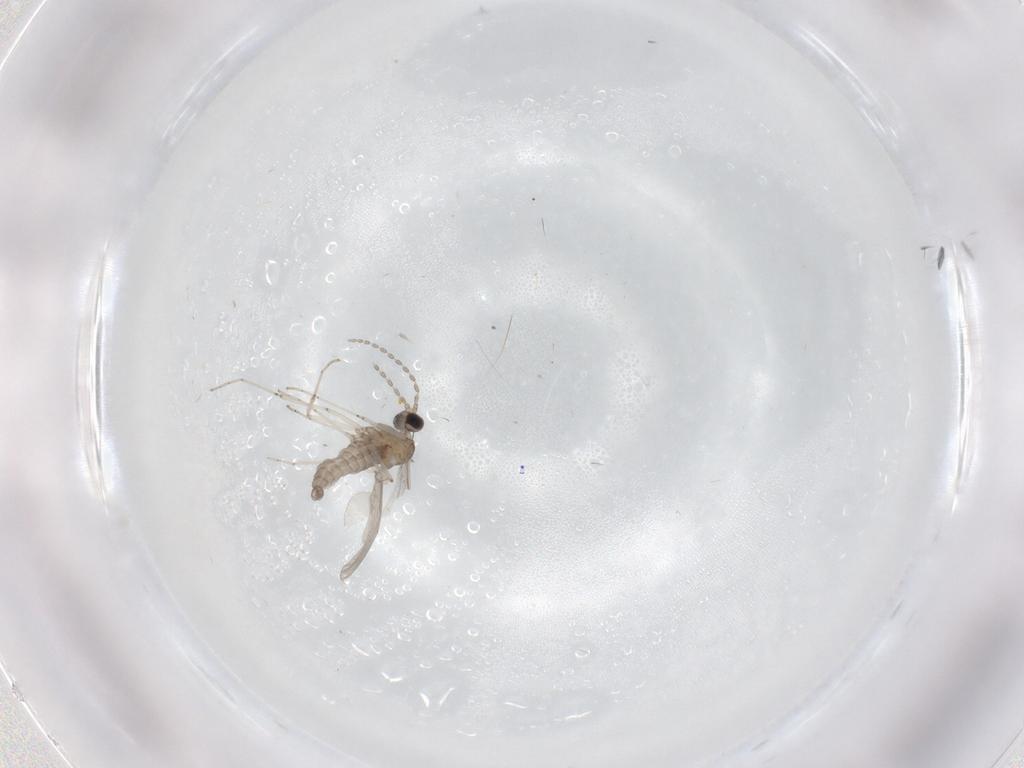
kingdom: Animalia
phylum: Arthropoda
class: Insecta
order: Diptera
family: Cecidomyiidae
